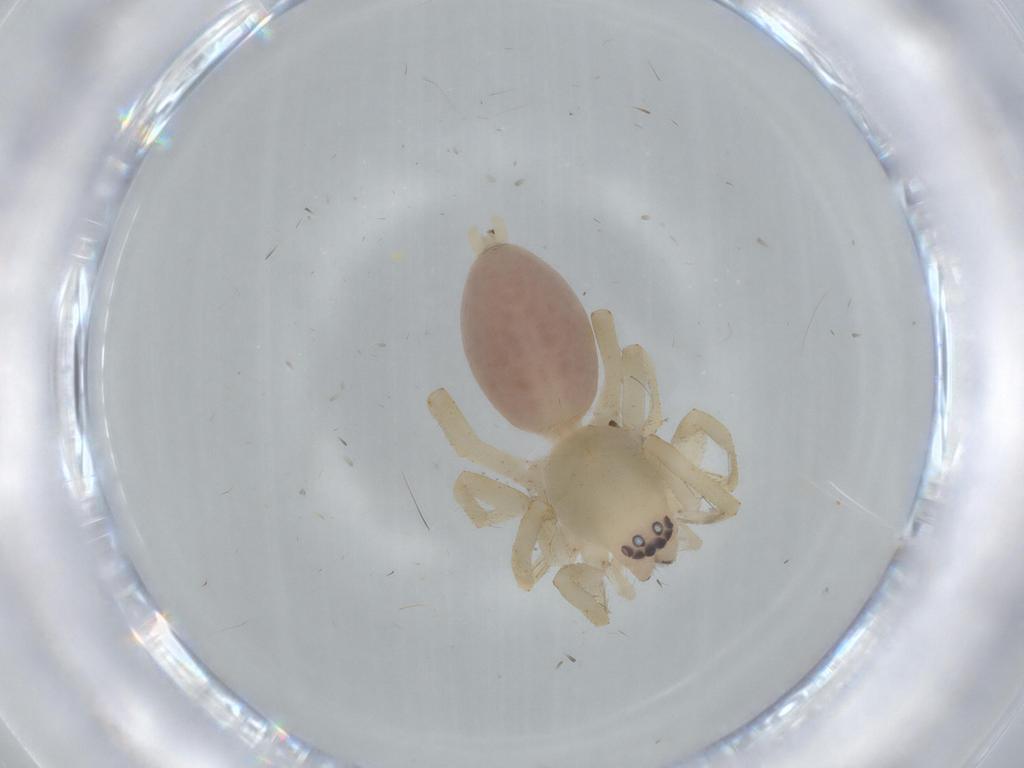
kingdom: Animalia
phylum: Arthropoda
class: Arachnida
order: Araneae
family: Linyphiidae
